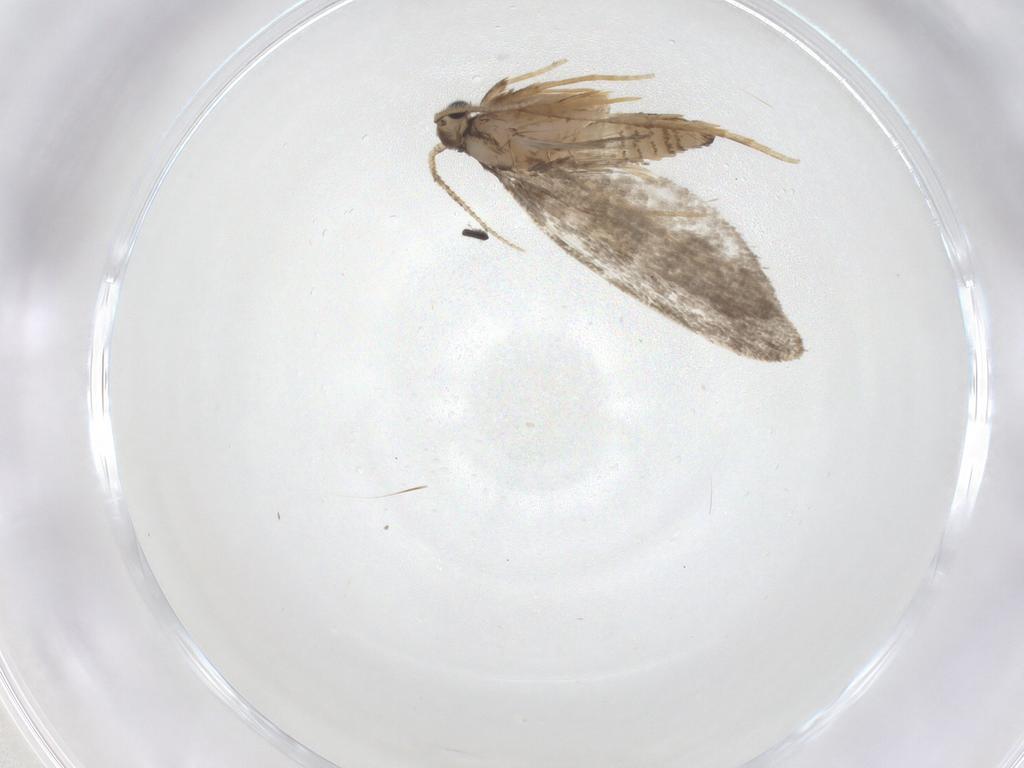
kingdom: Animalia
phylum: Arthropoda
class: Insecta
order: Lepidoptera
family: Psychidae
